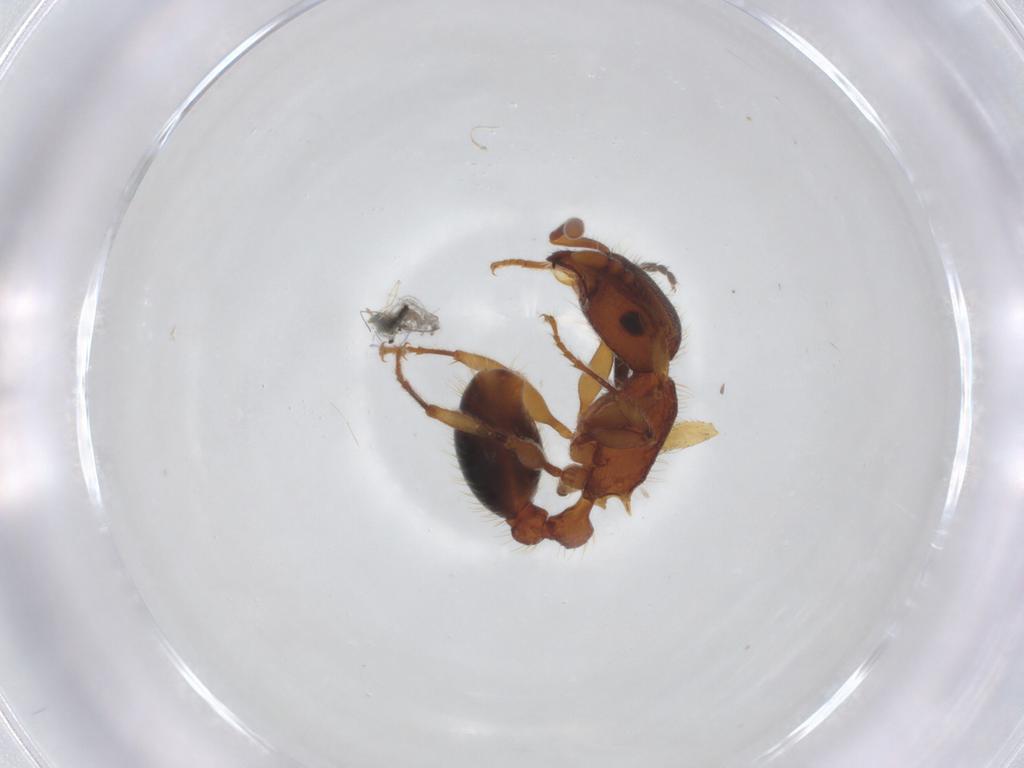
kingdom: Animalia
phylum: Arthropoda
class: Insecta
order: Hymenoptera
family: Formicidae
